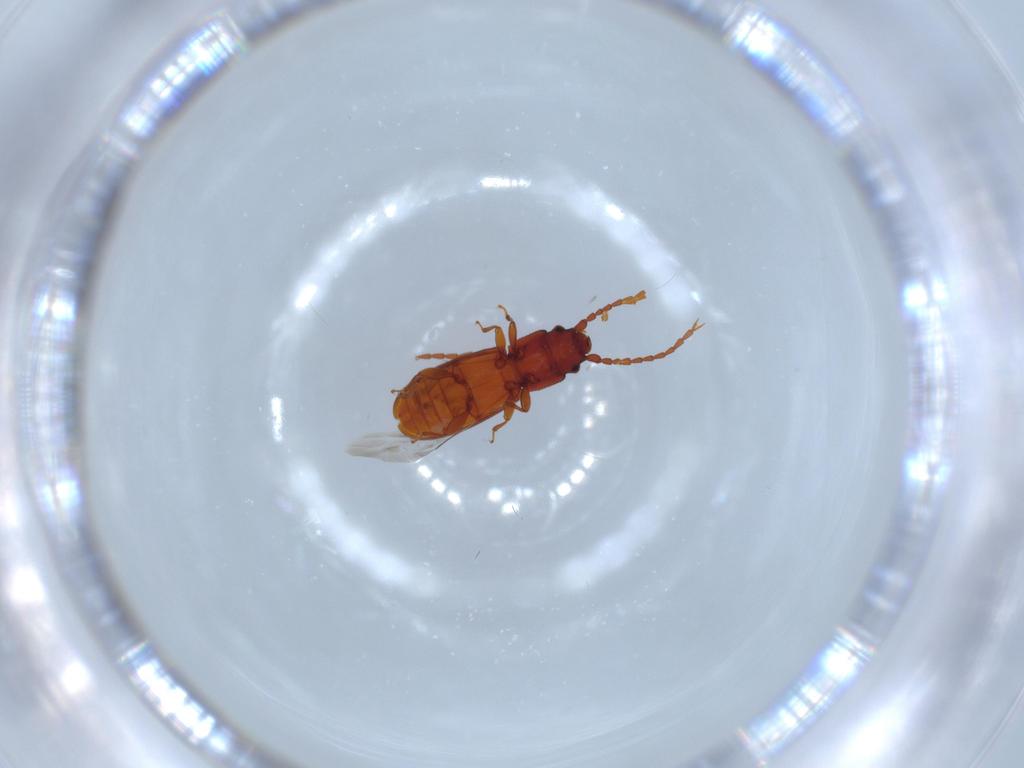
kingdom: Animalia
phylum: Arthropoda
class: Insecta
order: Coleoptera
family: Laemophloeidae
